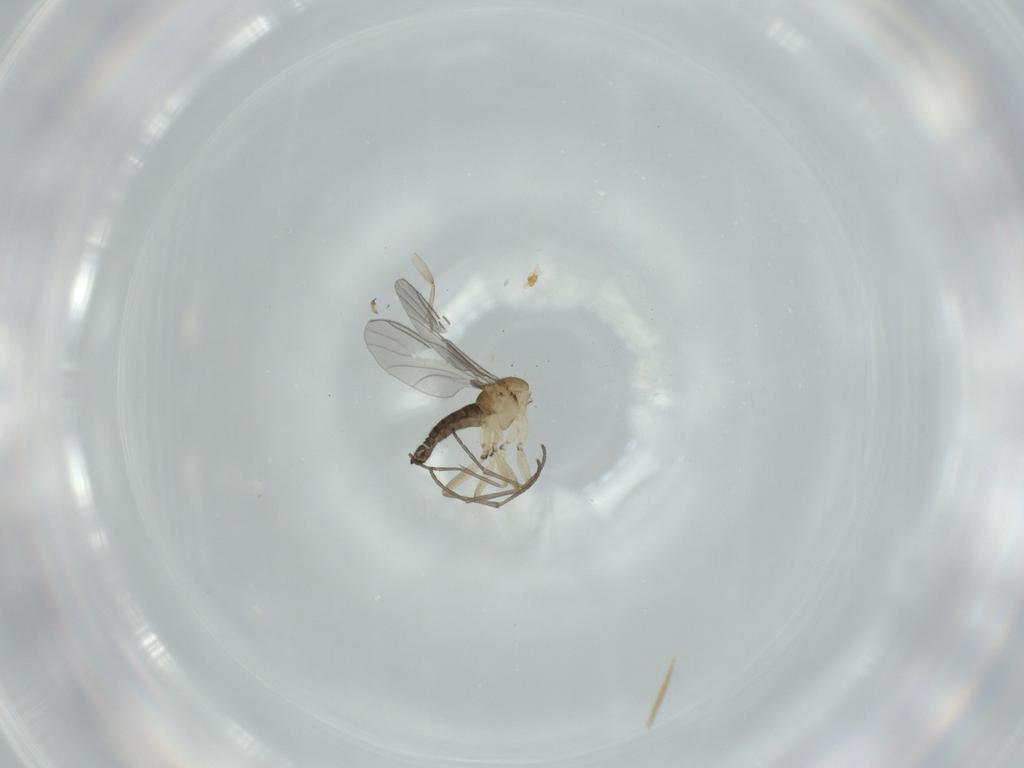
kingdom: Animalia
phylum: Arthropoda
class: Insecta
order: Diptera
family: Sciaridae
